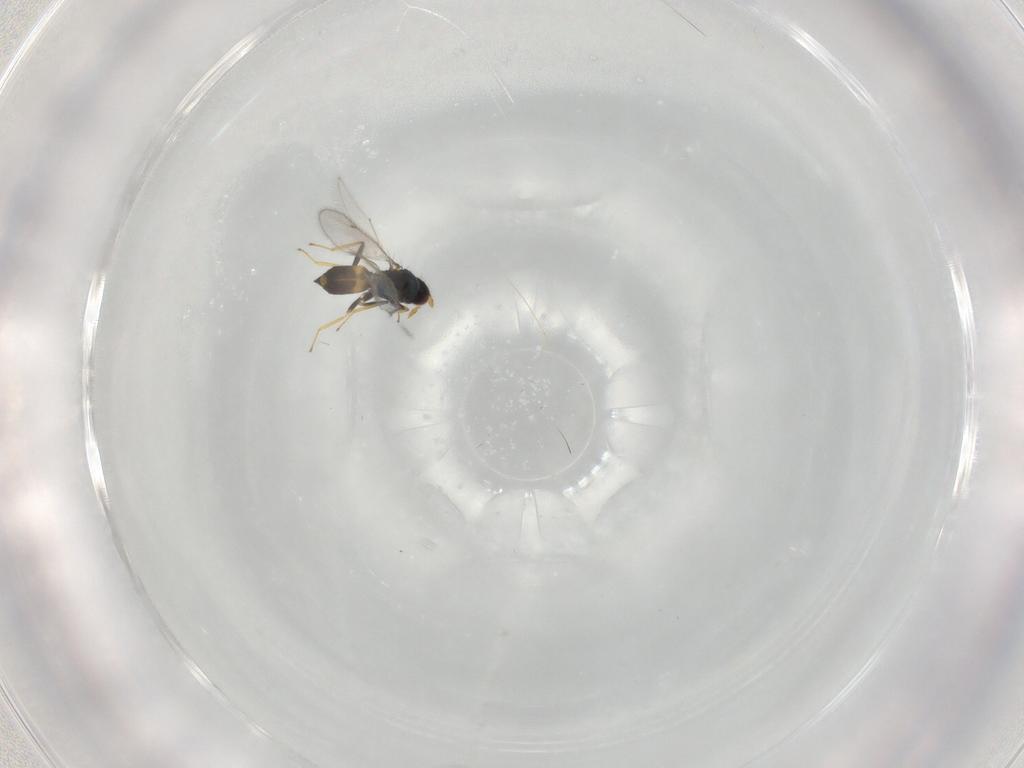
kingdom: Animalia
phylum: Arthropoda
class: Insecta
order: Hymenoptera
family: Eulophidae
